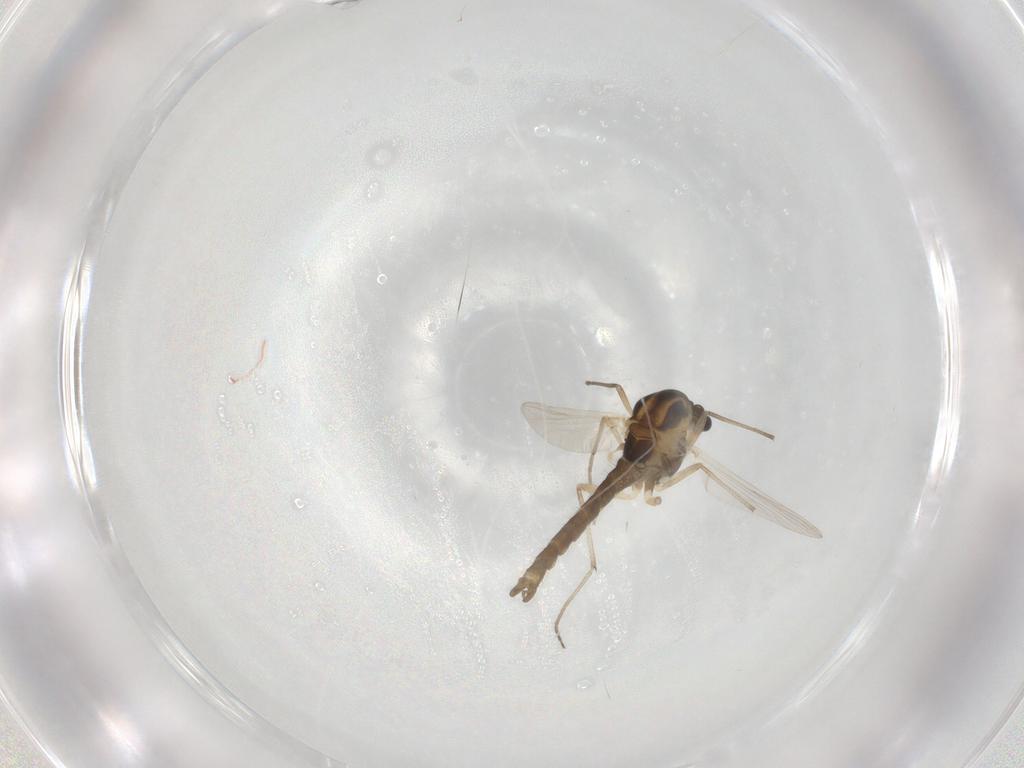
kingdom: Animalia
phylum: Arthropoda
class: Insecta
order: Diptera
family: Chironomidae
